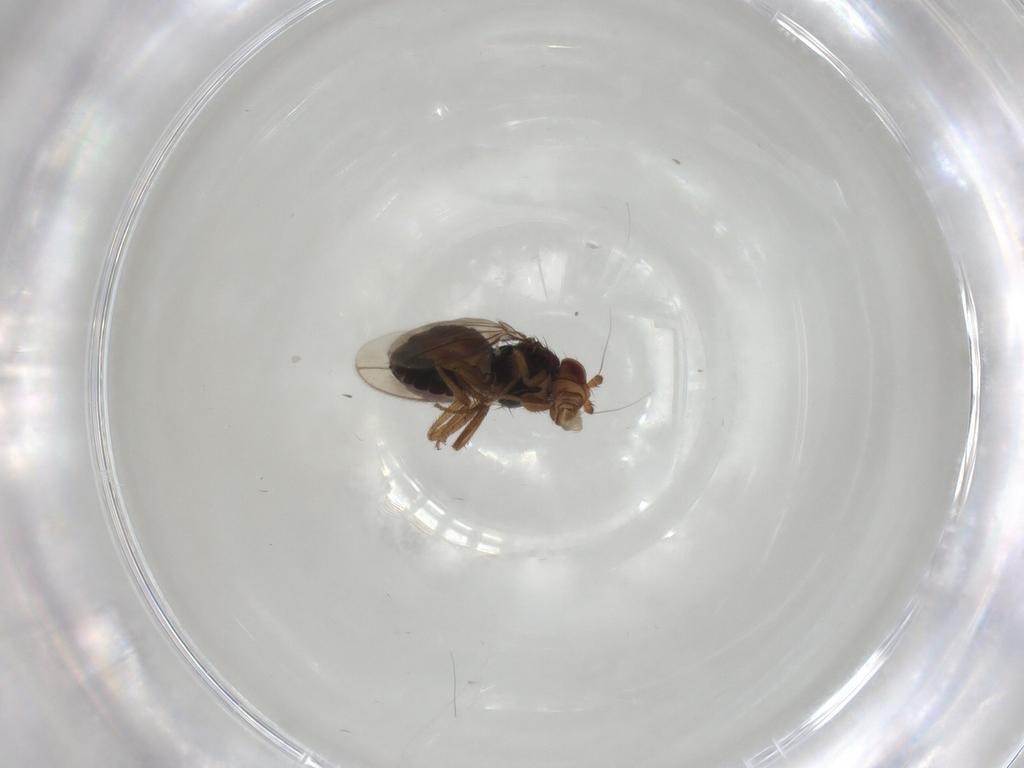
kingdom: Animalia
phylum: Arthropoda
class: Insecta
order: Diptera
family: Sphaeroceridae
